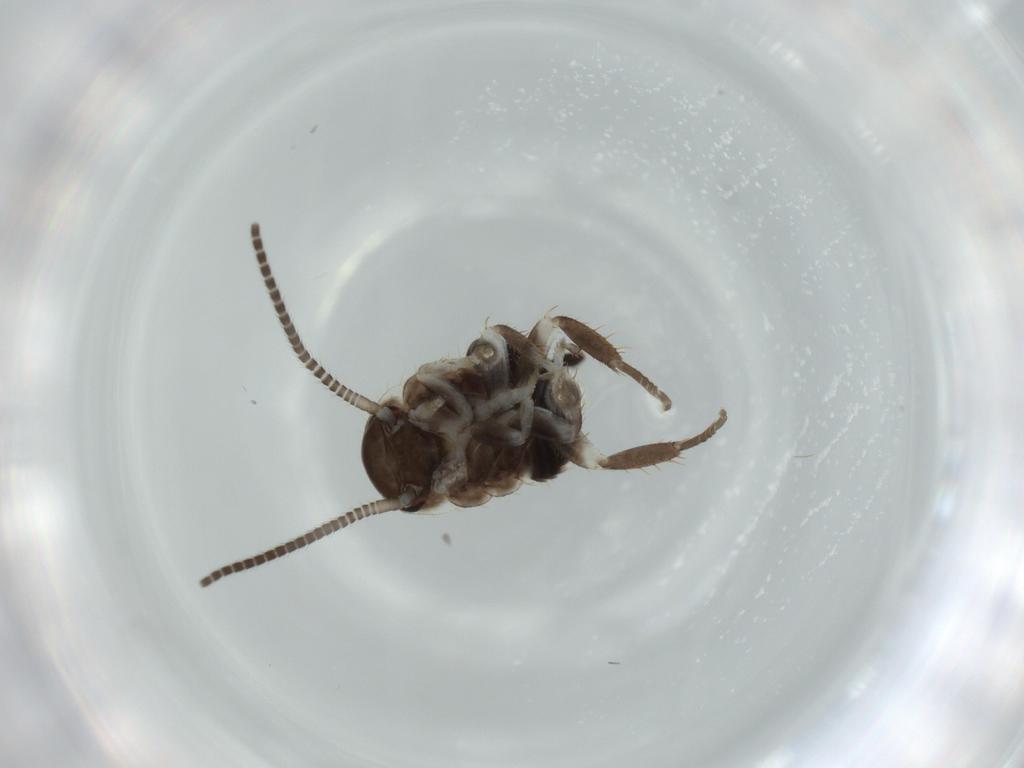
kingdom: Animalia
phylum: Arthropoda
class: Insecta
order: Blattodea
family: Ectobiidae
